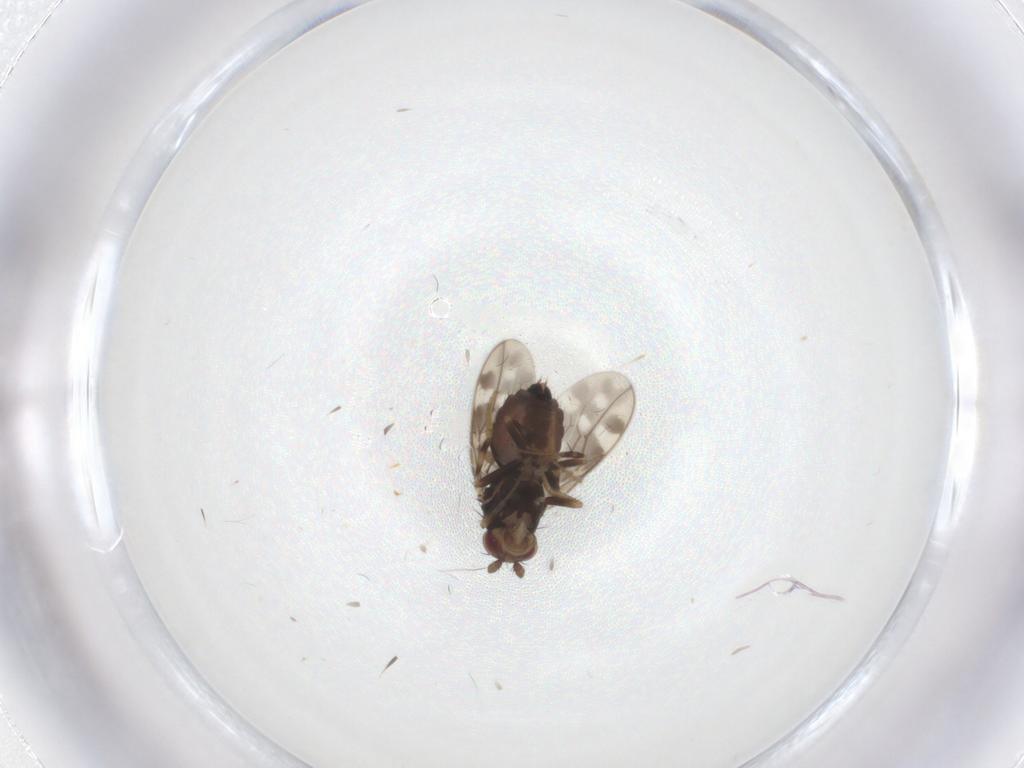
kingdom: Animalia
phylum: Arthropoda
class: Insecta
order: Diptera
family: Sphaeroceridae
